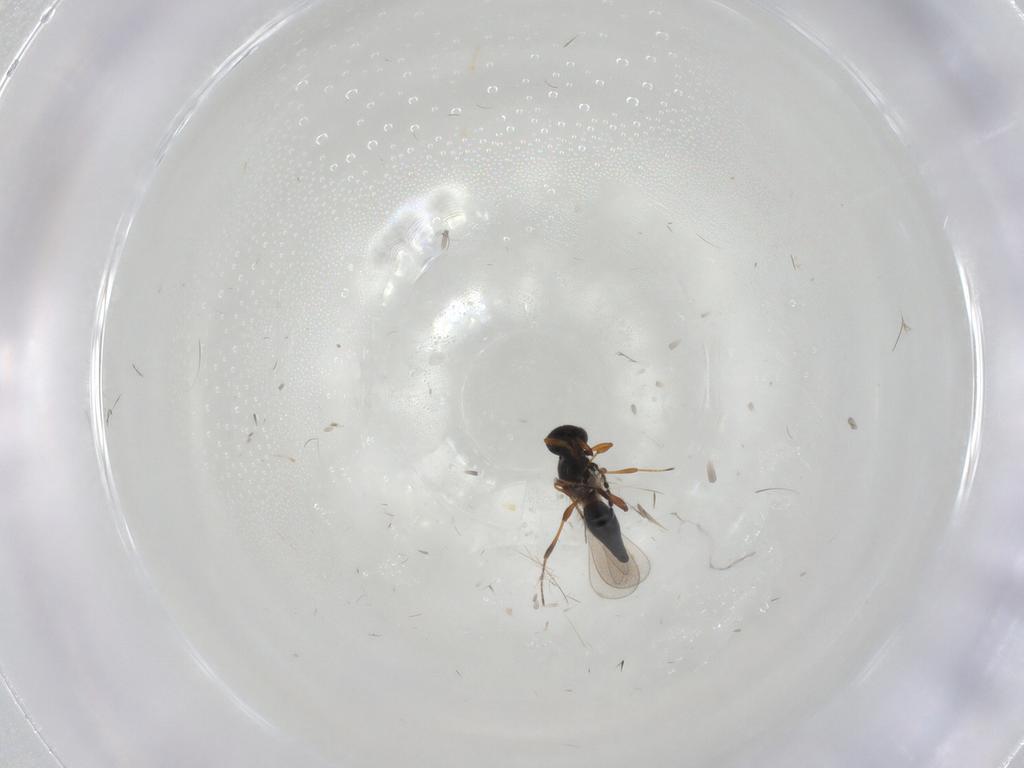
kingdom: Animalia
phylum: Arthropoda
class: Insecta
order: Hymenoptera
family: Platygastridae
